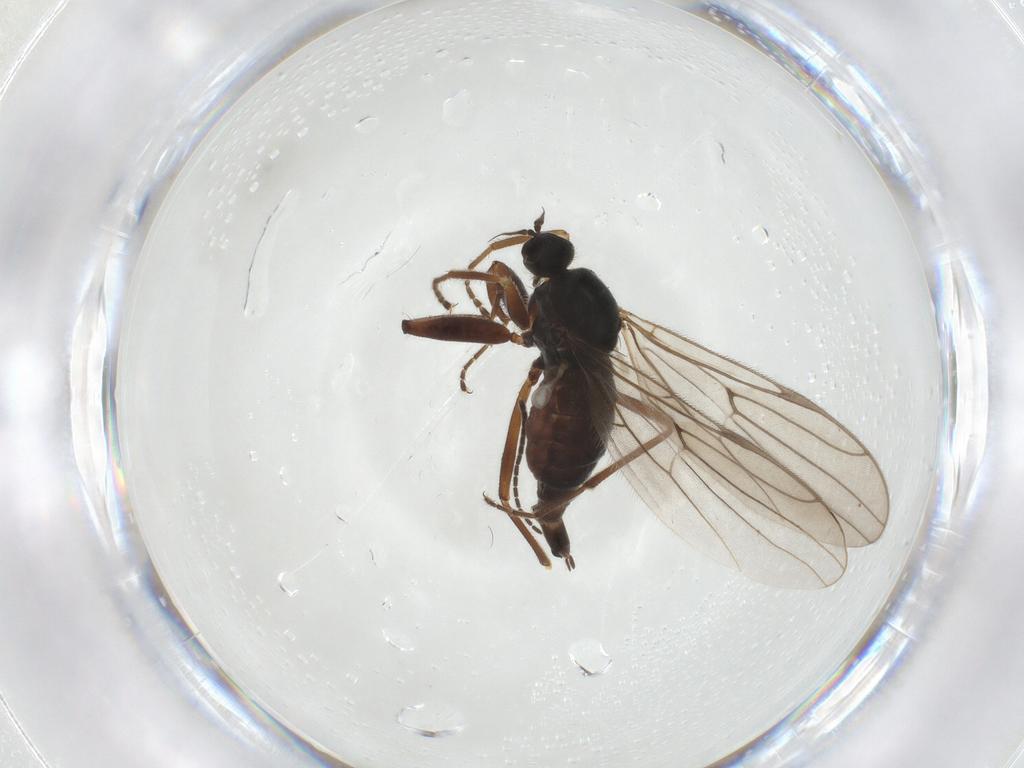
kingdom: Animalia
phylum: Arthropoda
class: Insecta
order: Diptera
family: Hybotidae
